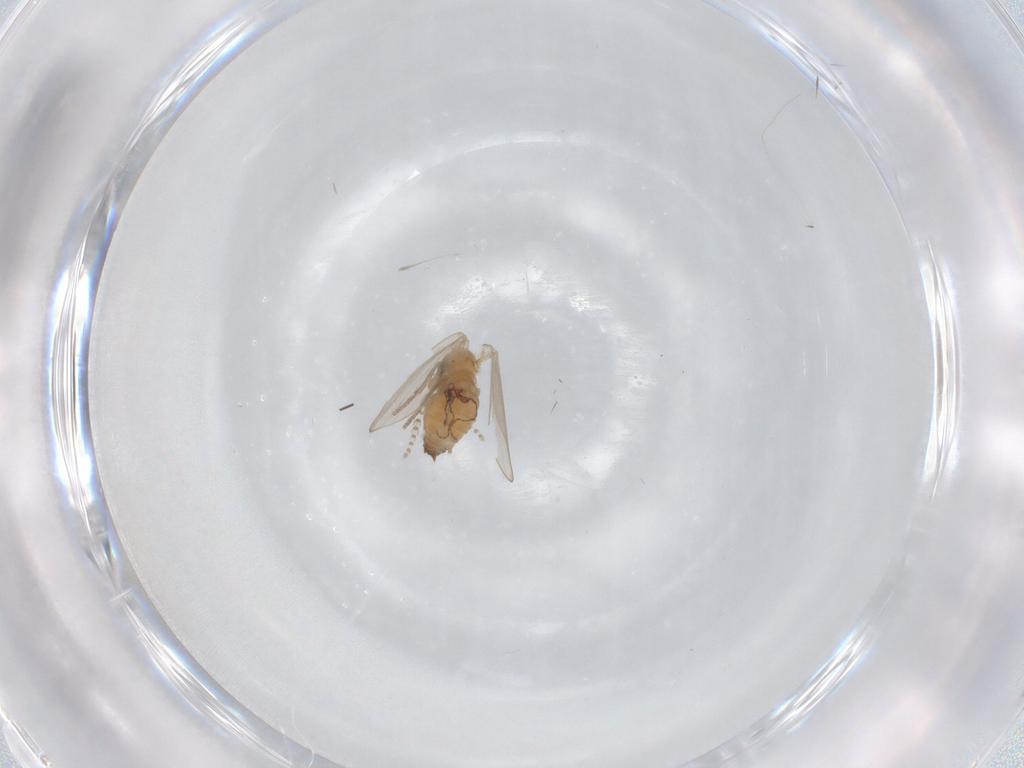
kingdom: Animalia
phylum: Arthropoda
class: Insecta
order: Diptera
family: Psychodidae
